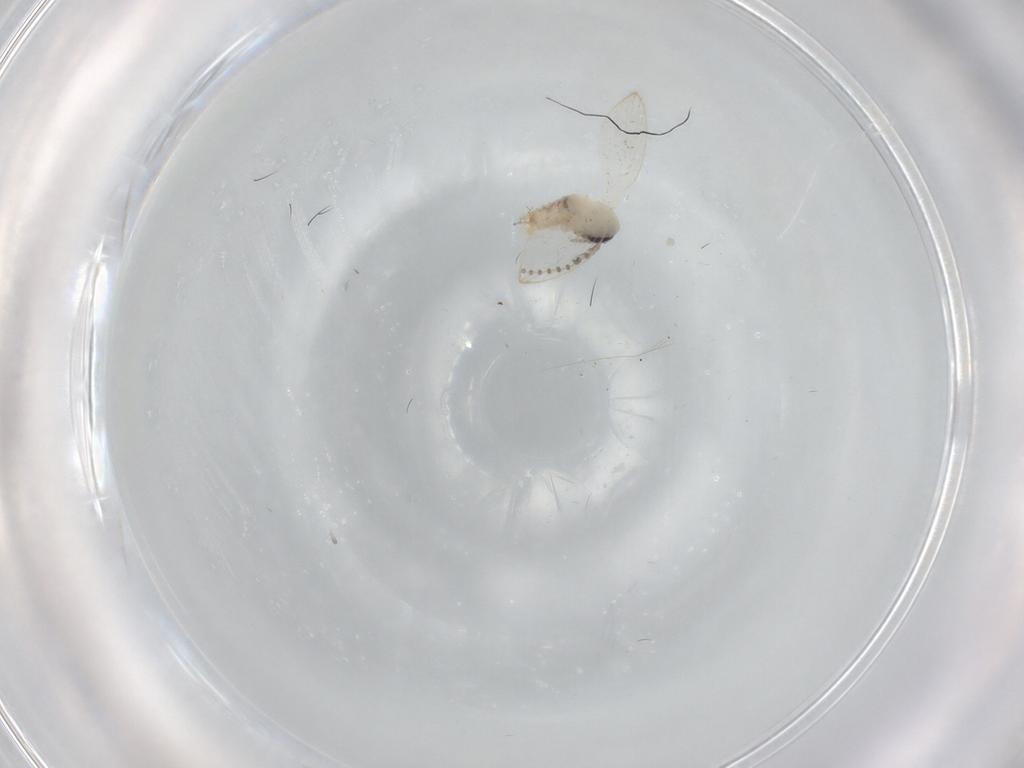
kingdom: Animalia
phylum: Arthropoda
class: Insecta
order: Diptera
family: Psychodidae
